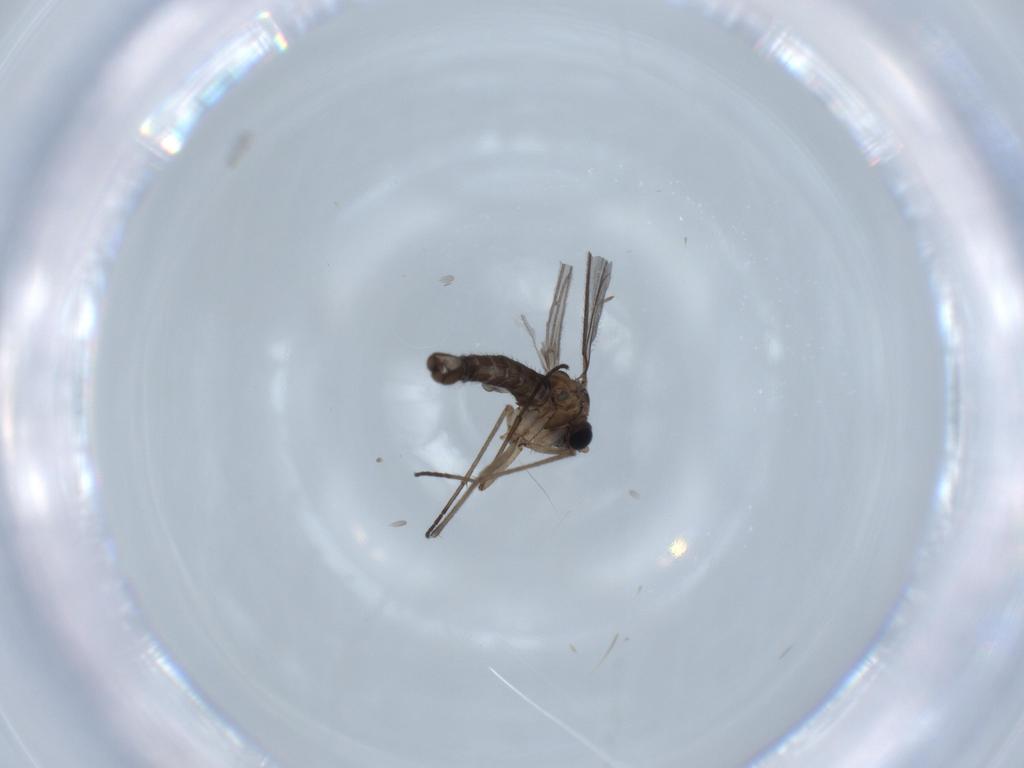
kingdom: Animalia
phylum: Arthropoda
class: Insecta
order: Diptera
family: Cecidomyiidae
